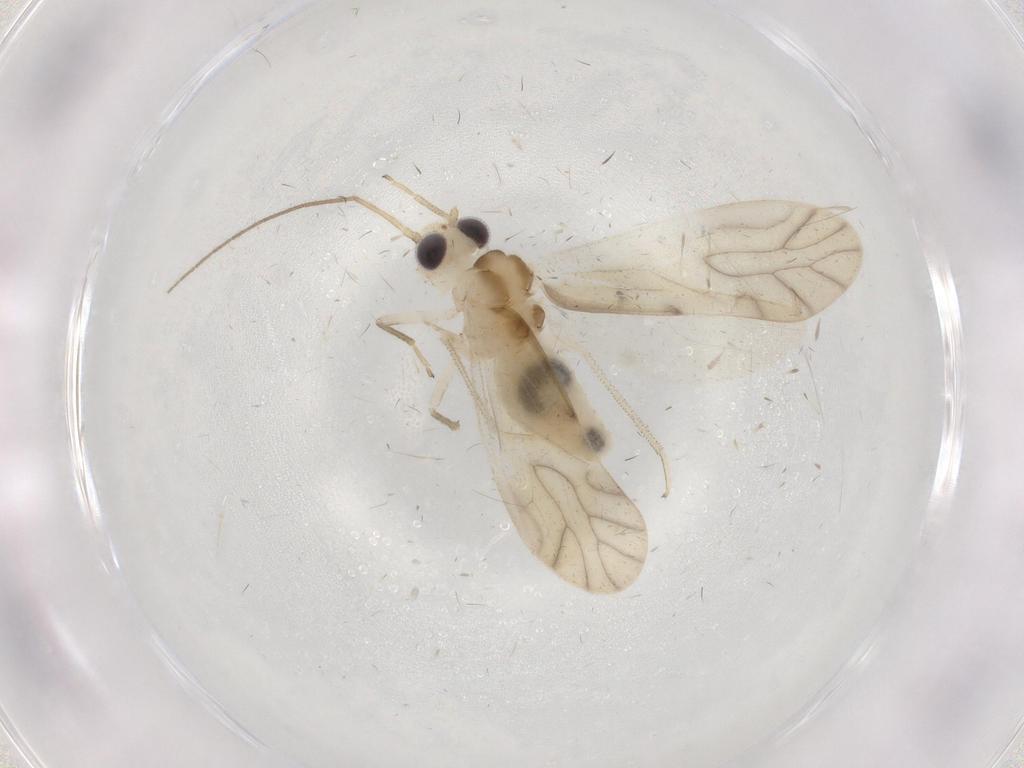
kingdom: Animalia
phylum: Arthropoda
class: Insecta
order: Psocodea
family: Caeciliusidae
